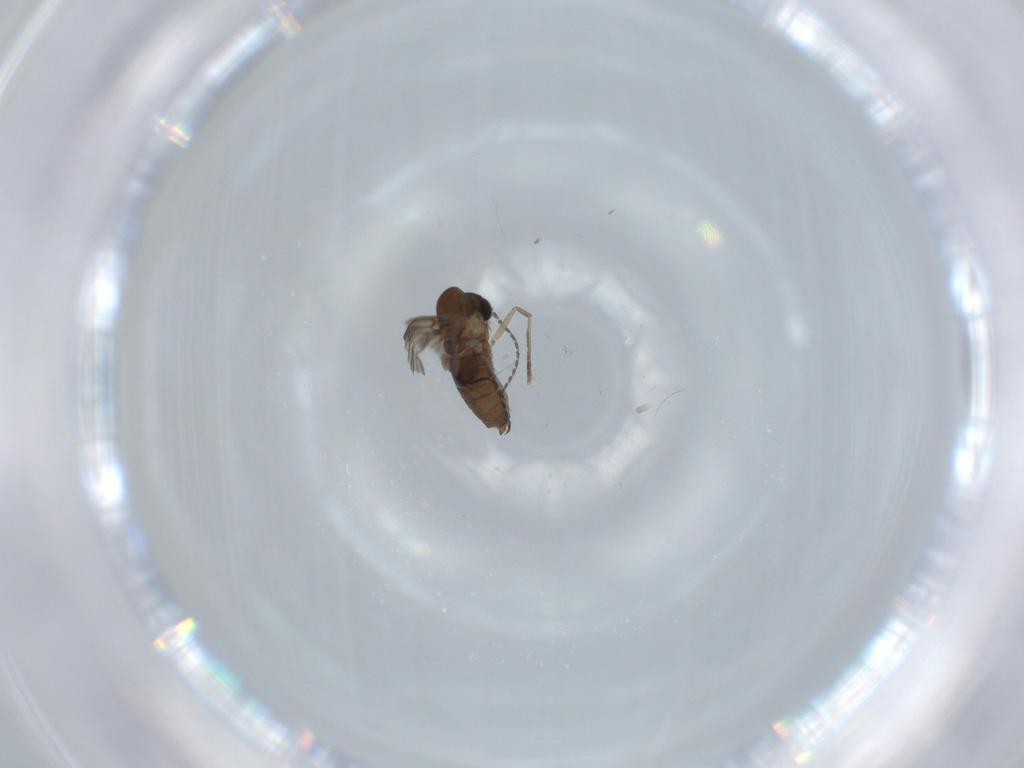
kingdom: Animalia
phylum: Arthropoda
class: Insecta
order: Diptera
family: Psychodidae
